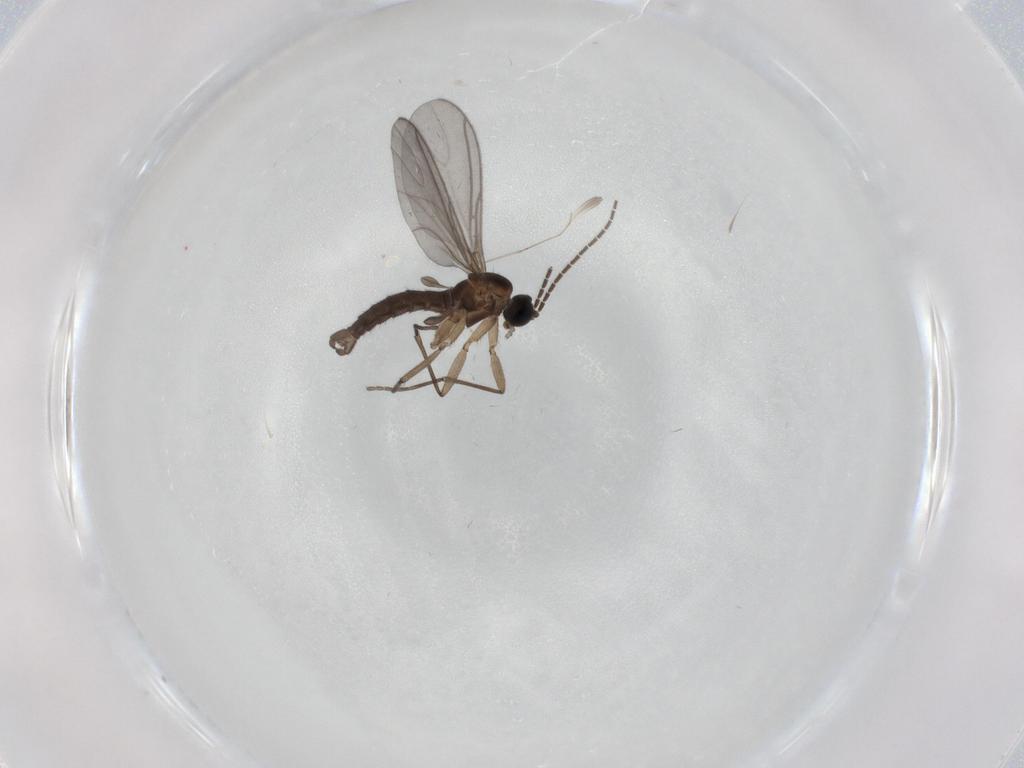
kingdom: Animalia
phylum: Arthropoda
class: Insecta
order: Diptera
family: Sciaridae
